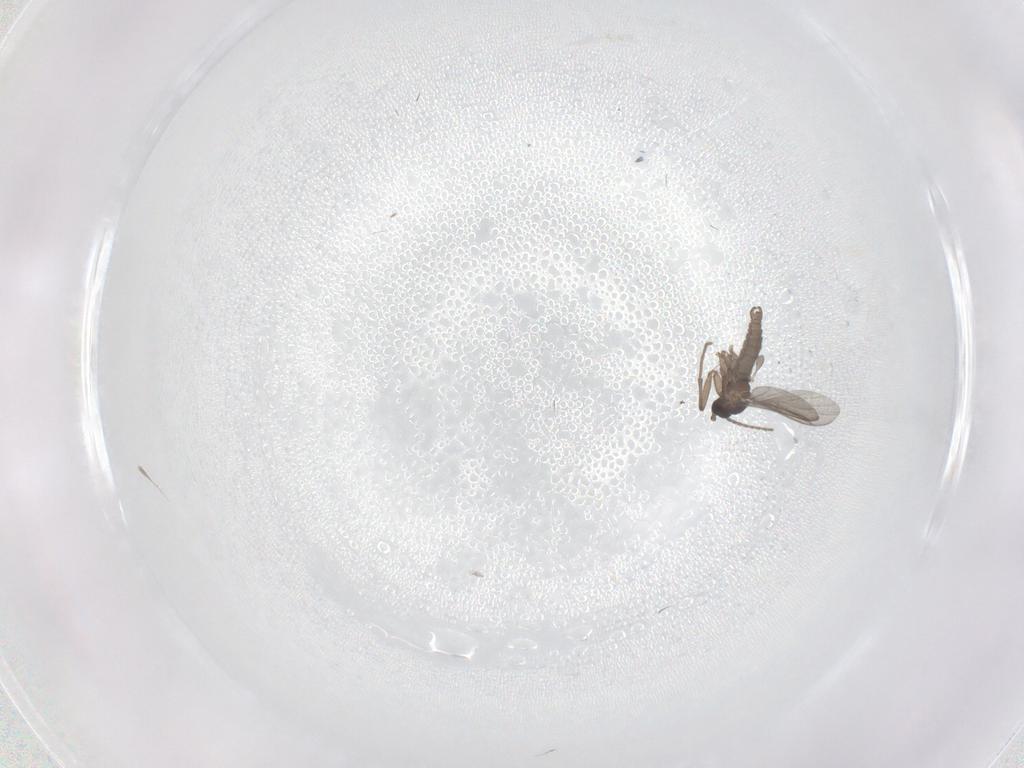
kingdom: Animalia
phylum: Arthropoda
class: Insecta
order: Diptera
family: Sciaridae
